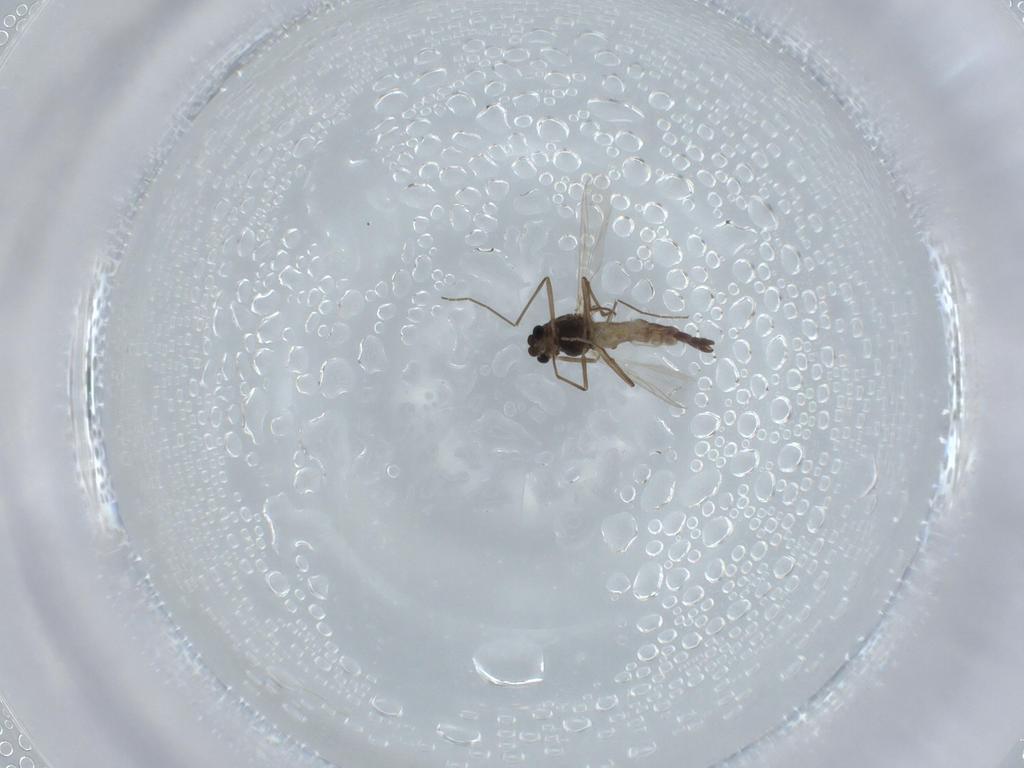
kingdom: Animalia
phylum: Arthropoda
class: Insecta
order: Diptera
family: Chironomidae
